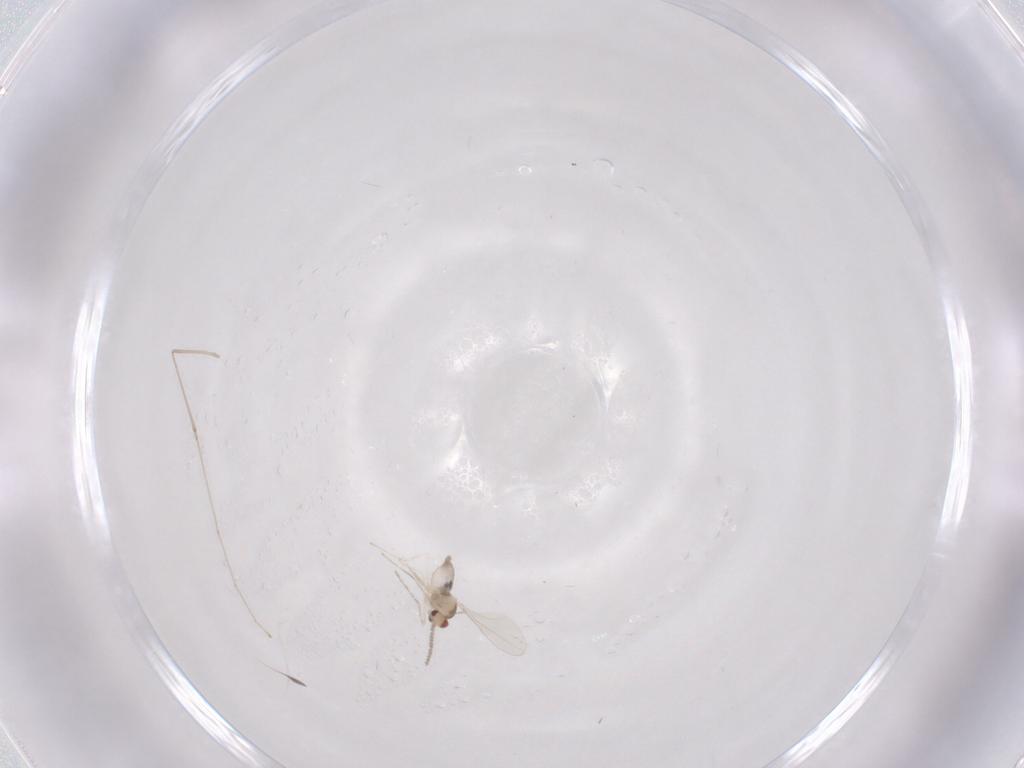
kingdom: Animalia
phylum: Arthropoda
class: Insecta
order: Diptera
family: Cecidomyiidae
